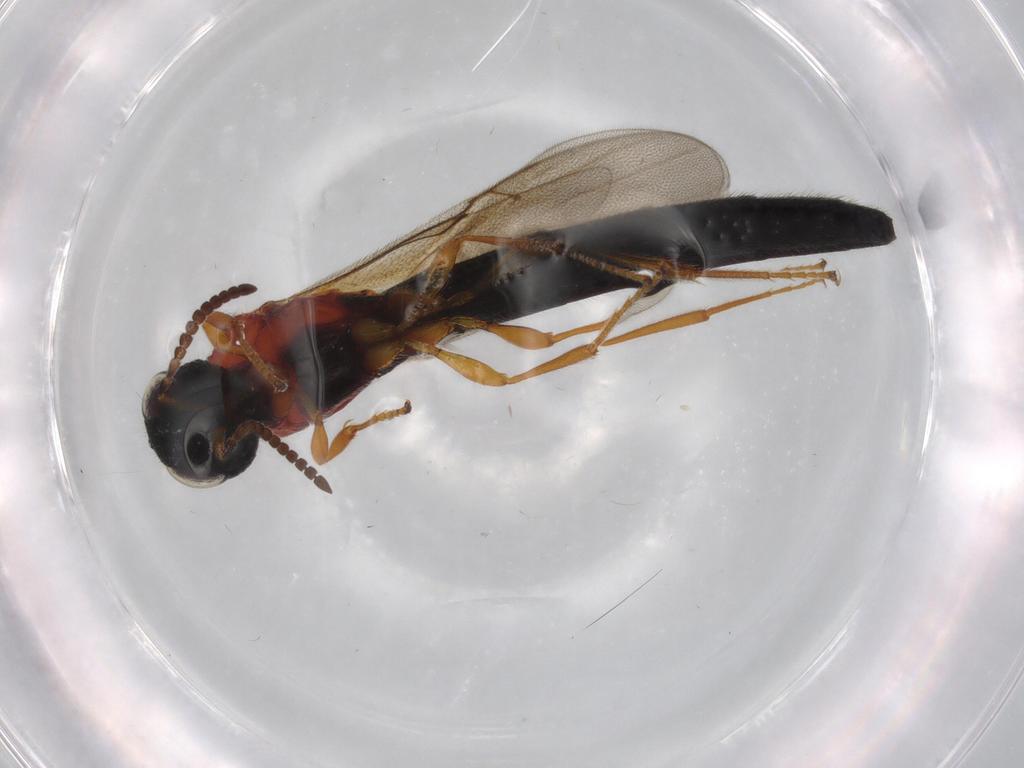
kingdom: Animalia
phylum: Arthropoda
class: Insecta
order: Hymenoptera
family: Scelionidae
